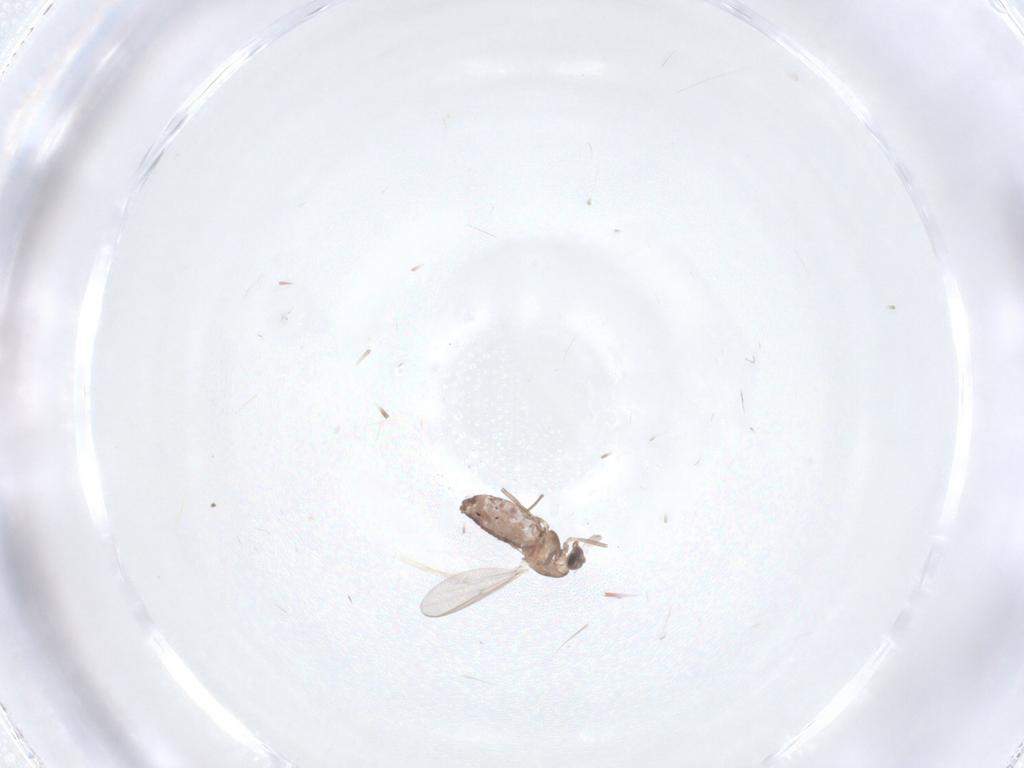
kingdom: Animalia
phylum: Arthropoda
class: Insecta
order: Diptera
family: Chironomidae
